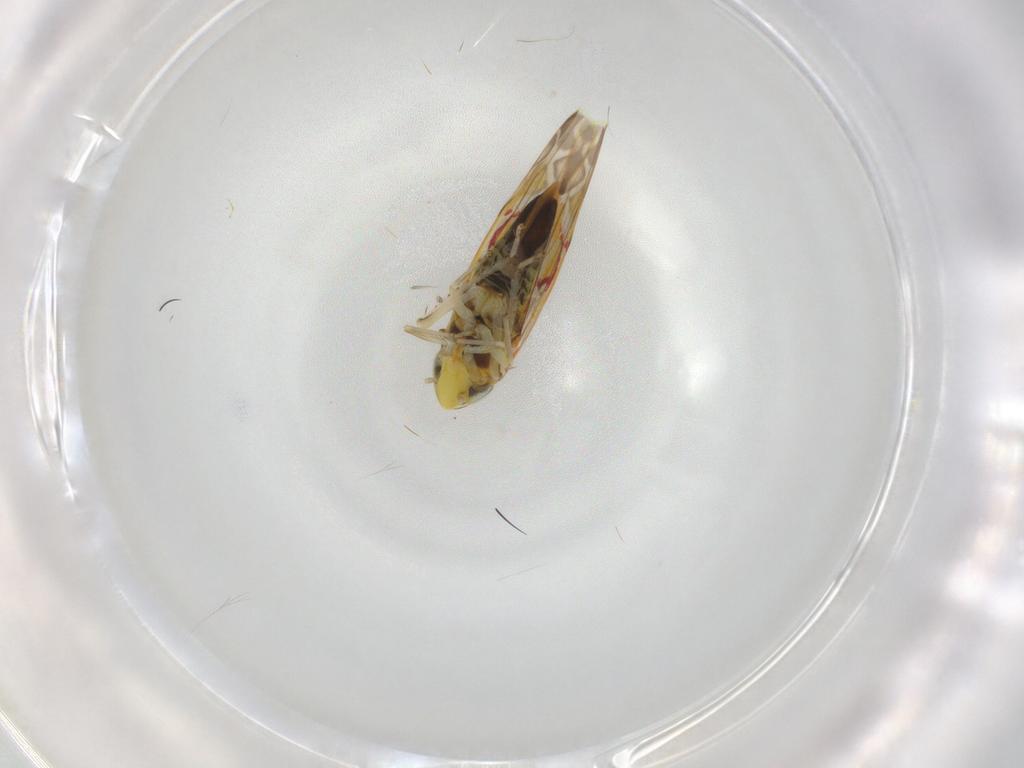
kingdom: Animalia
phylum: Arthropoda
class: Insecta
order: Hemiptera
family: Cicadellidae
